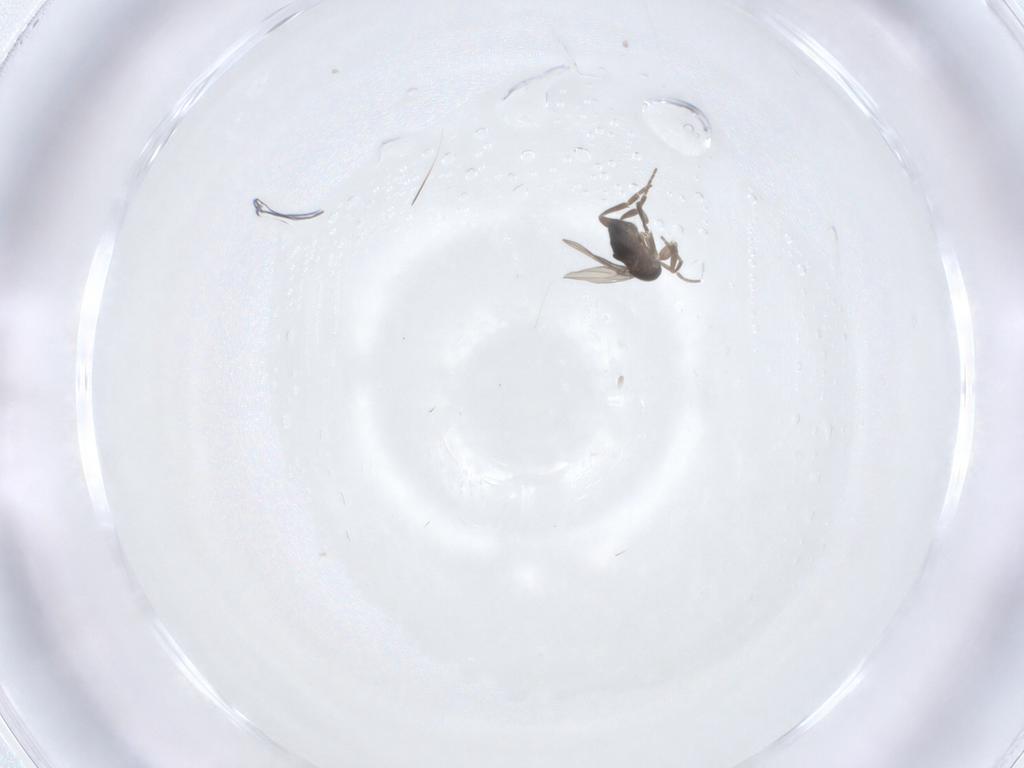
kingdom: Animalia
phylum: Arthropoda
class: Insecta
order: Diptera
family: Phoridae
